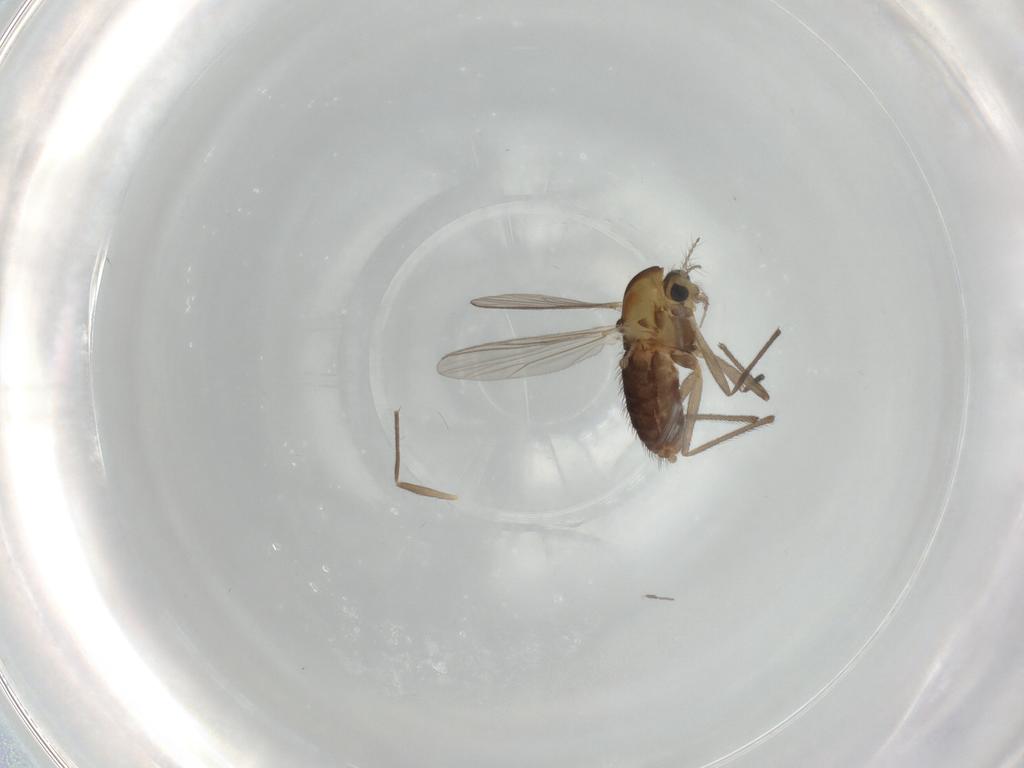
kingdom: Animalia
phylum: Arthropoda
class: Insecta
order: Diptera
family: Chironomidae
